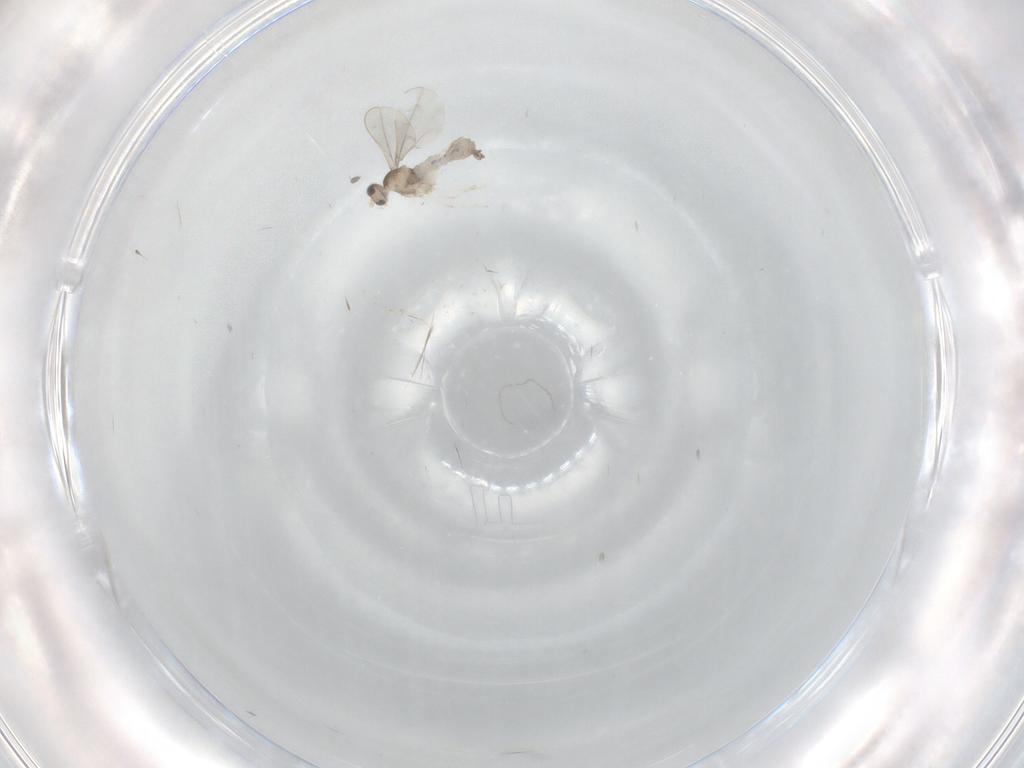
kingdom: Animalia
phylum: Arthropoda
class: Insecta
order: Diptera
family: Cecidomyiidae
